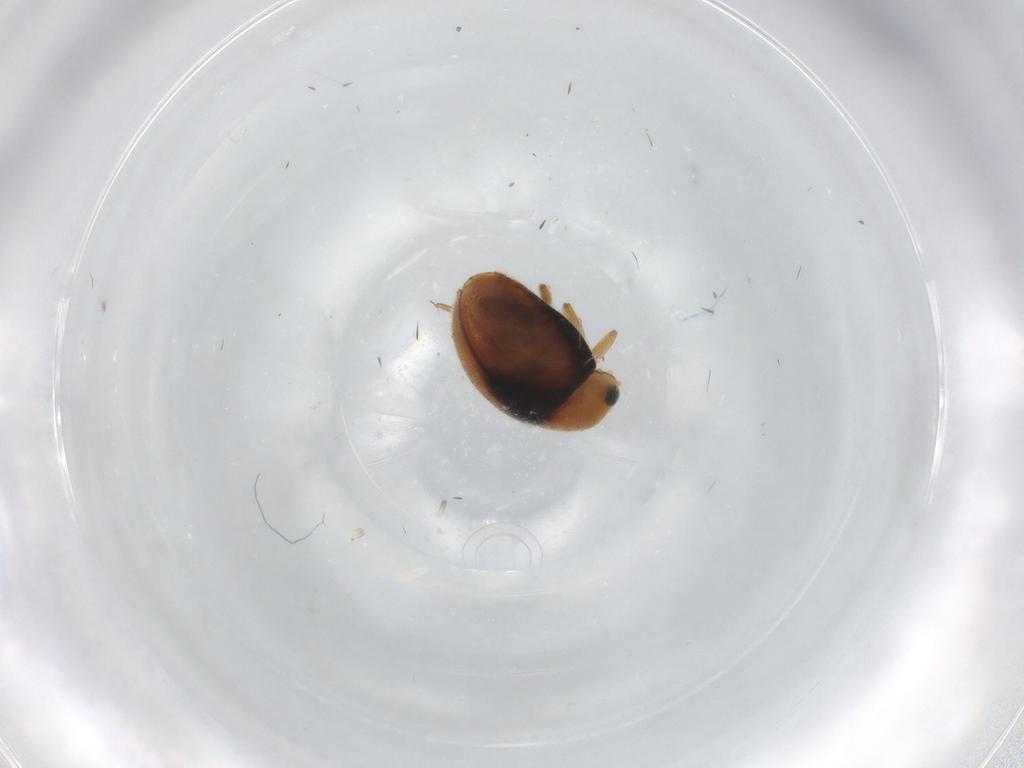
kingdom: Animalia
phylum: Arthropoda
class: Insecta
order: Coleoptera
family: Coccinellidae
